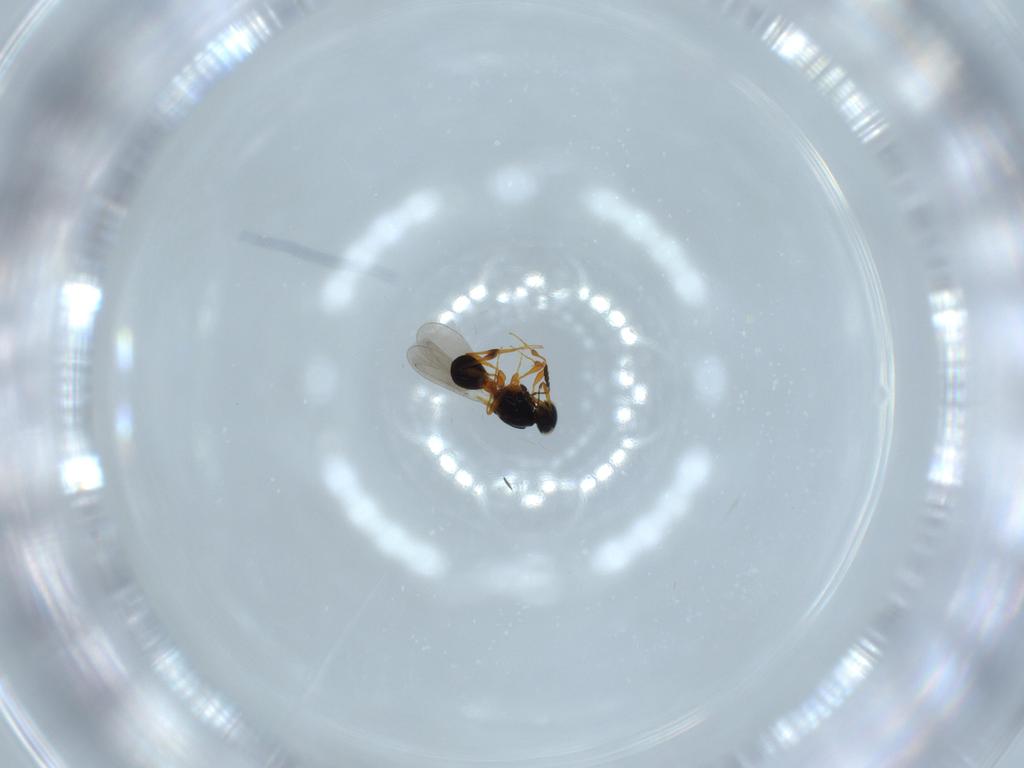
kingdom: Animalia
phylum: Arthropoda
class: Insecta
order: Hymenoptera
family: Platygastridae
